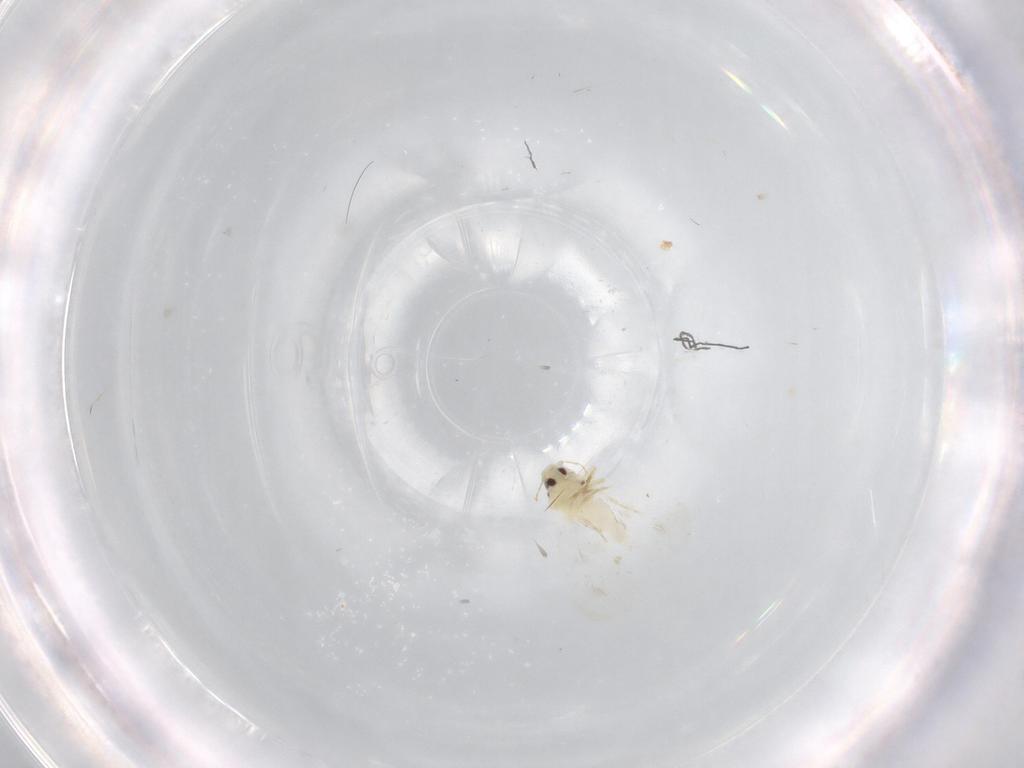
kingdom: Animalia
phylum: Arthropoda
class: Insecta
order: Hemiptera
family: Aleyrodidae
